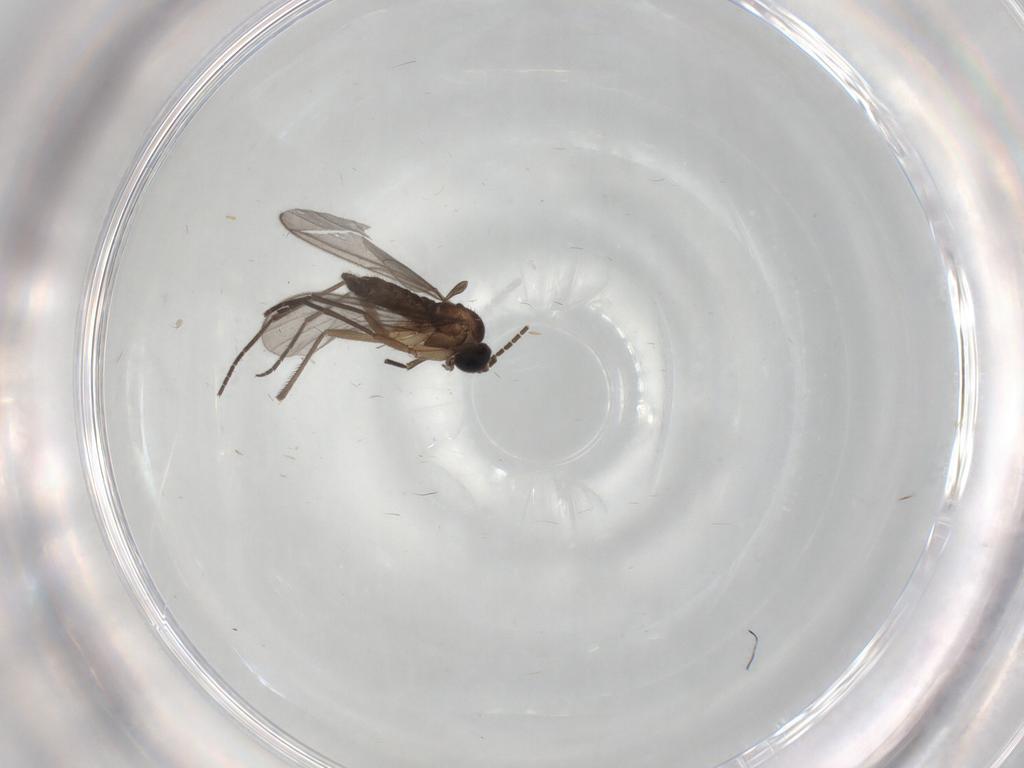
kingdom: Animalia
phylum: Arthropoda
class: Insecta
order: Diptera
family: Sciaridae
